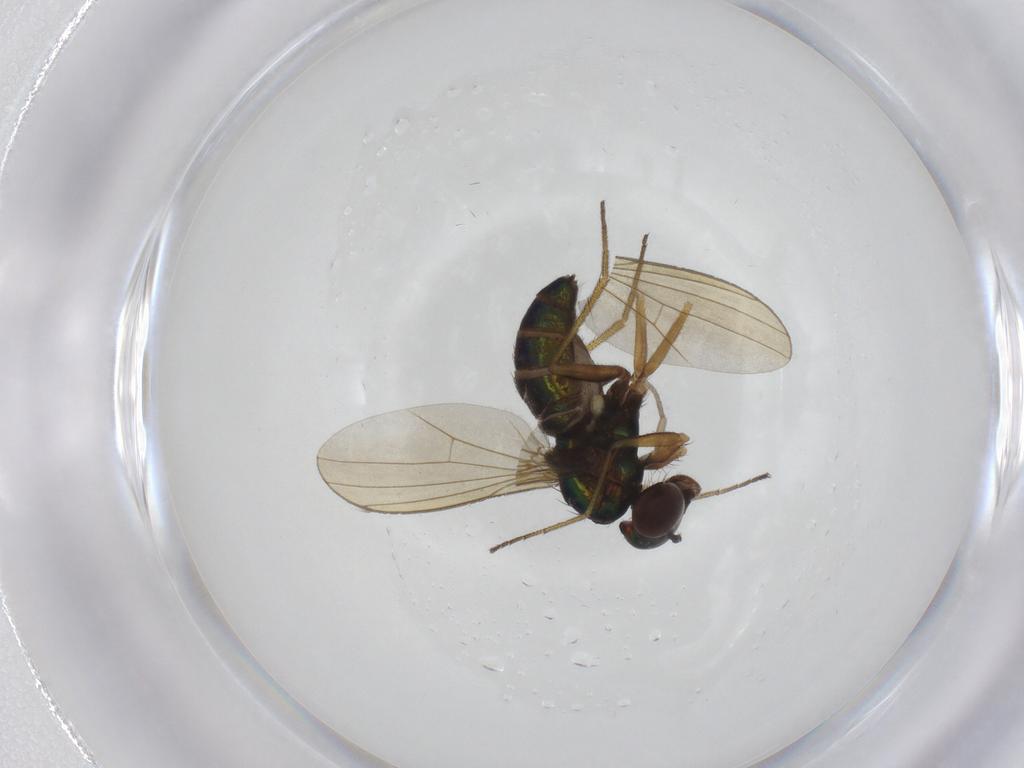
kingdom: Animalia
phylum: Arthropoda
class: Insecta
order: Diptera
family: Dolichopodidae
